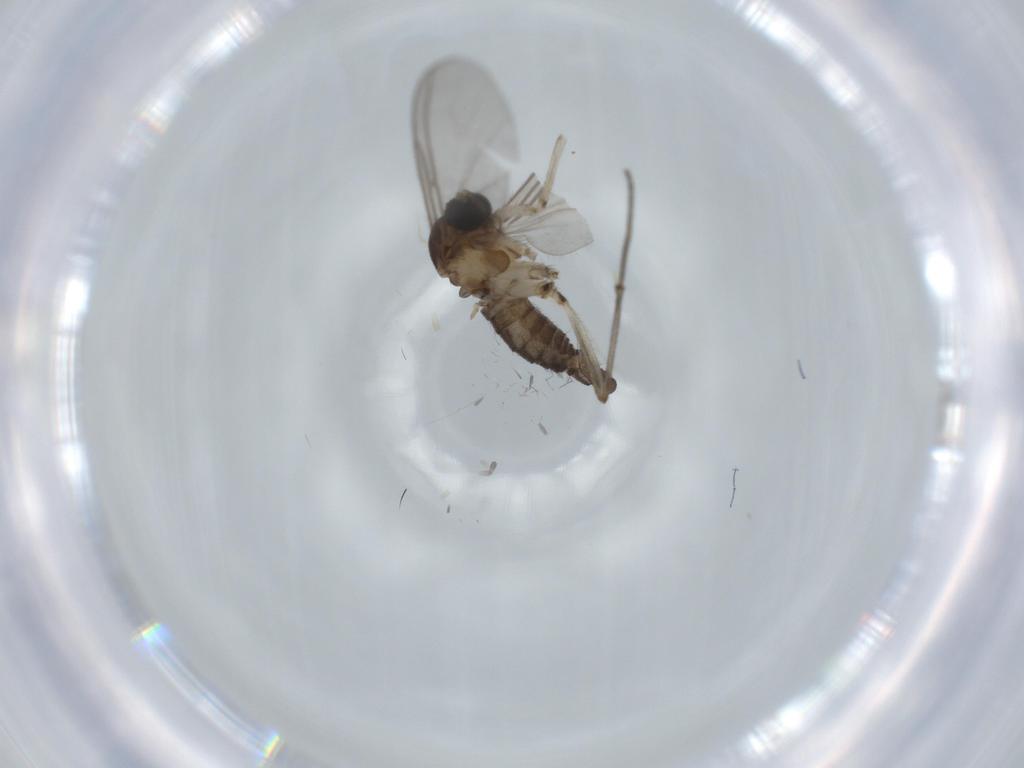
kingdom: Animalia
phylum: Arthropoda
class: Insecta
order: Diptera
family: Sciaridae
